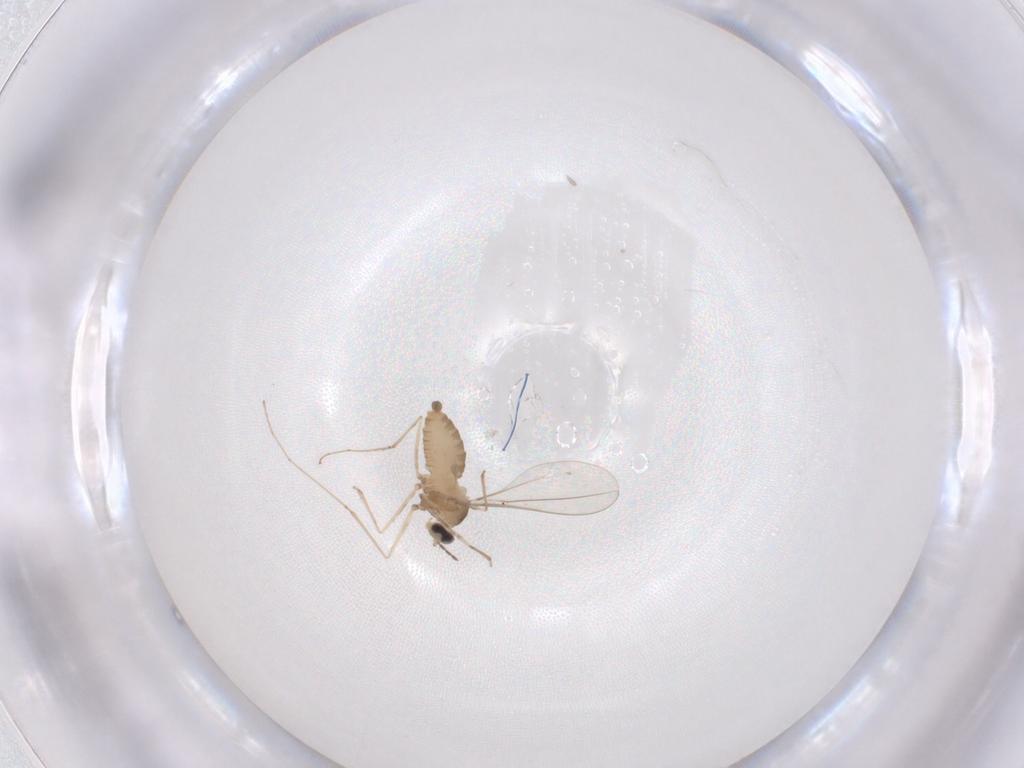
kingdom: Animalia
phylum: Arthropoda
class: Insecta
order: Diptera
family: Cecidomyiidae
